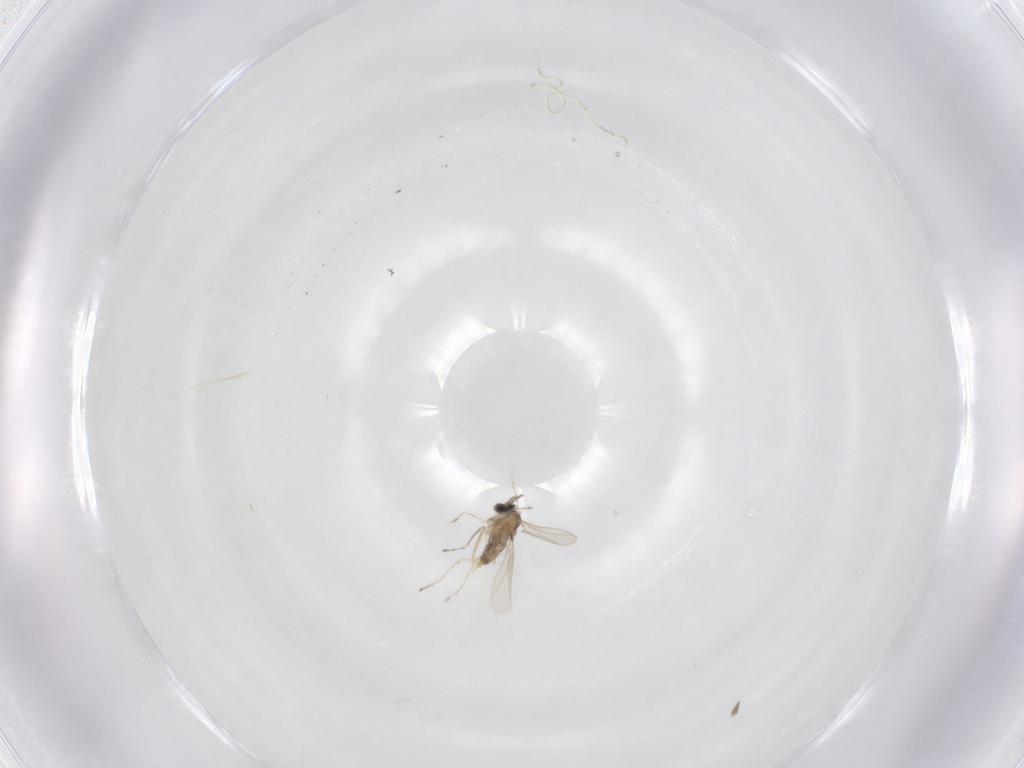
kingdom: Animalia
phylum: Arthropoda
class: Insecta
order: Diptera
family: Cecidomyiidae
